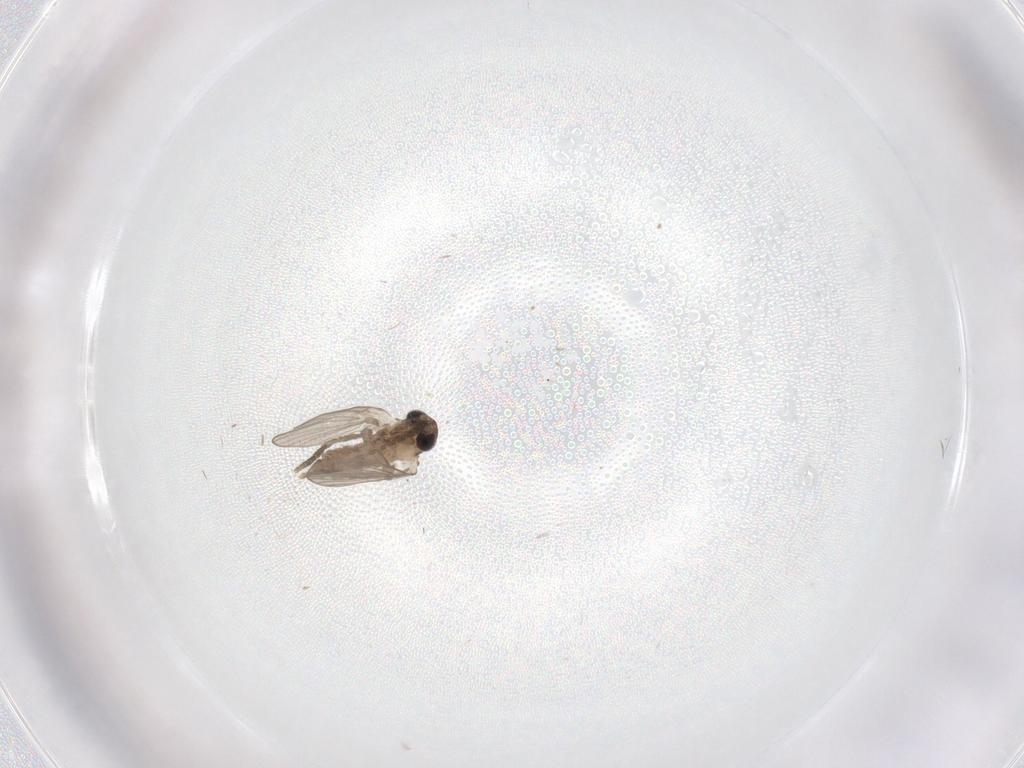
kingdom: Animalia
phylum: Arthropoda
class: Insecta
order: Diptera
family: Psychodidae
